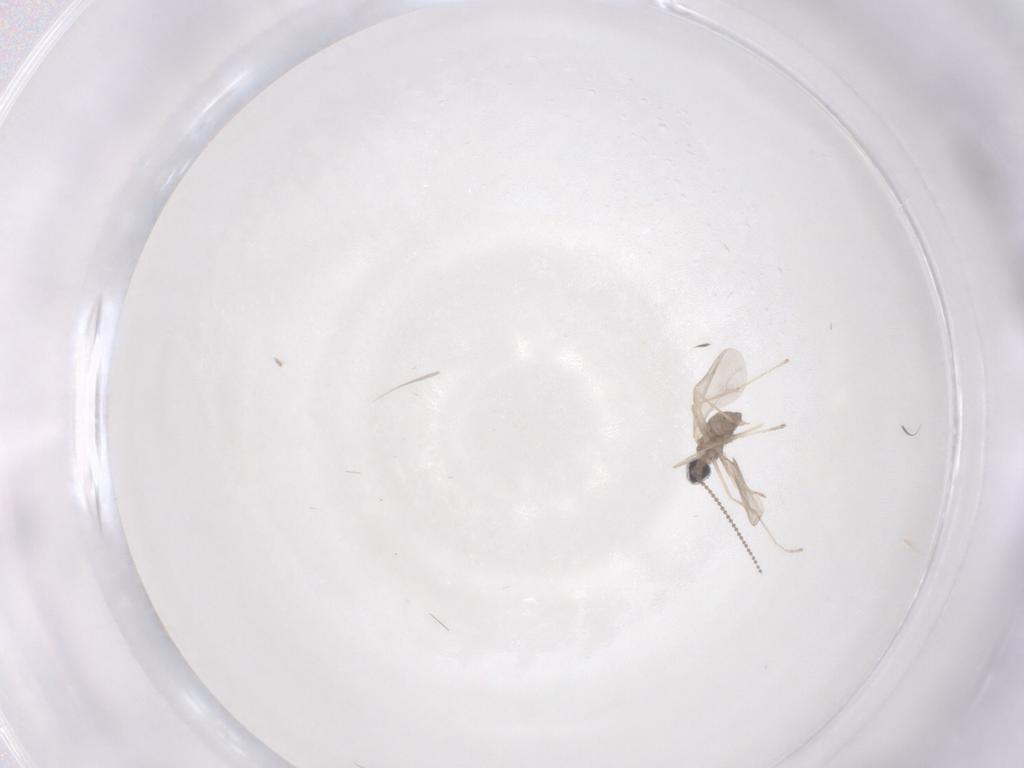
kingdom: Animalia
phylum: Arthropoda
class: Insecta
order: Diptera
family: Cecidomyiidae
